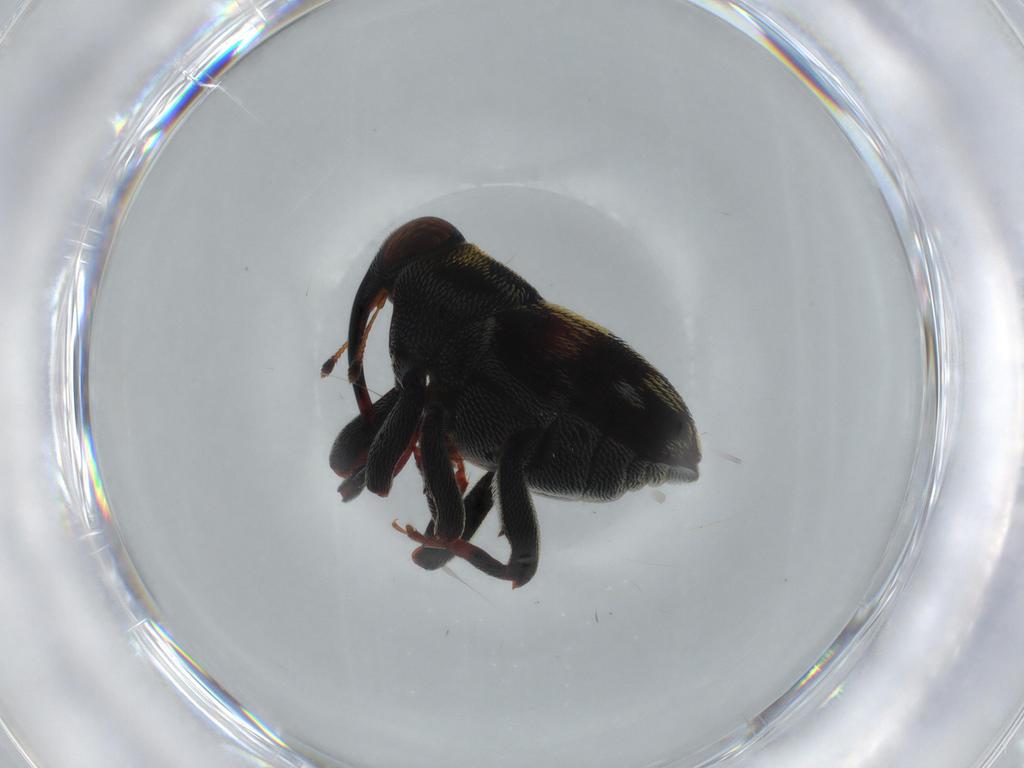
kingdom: Animalia
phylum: Arthropoda
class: Insecta
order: Coleoptera
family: Curculionidae
